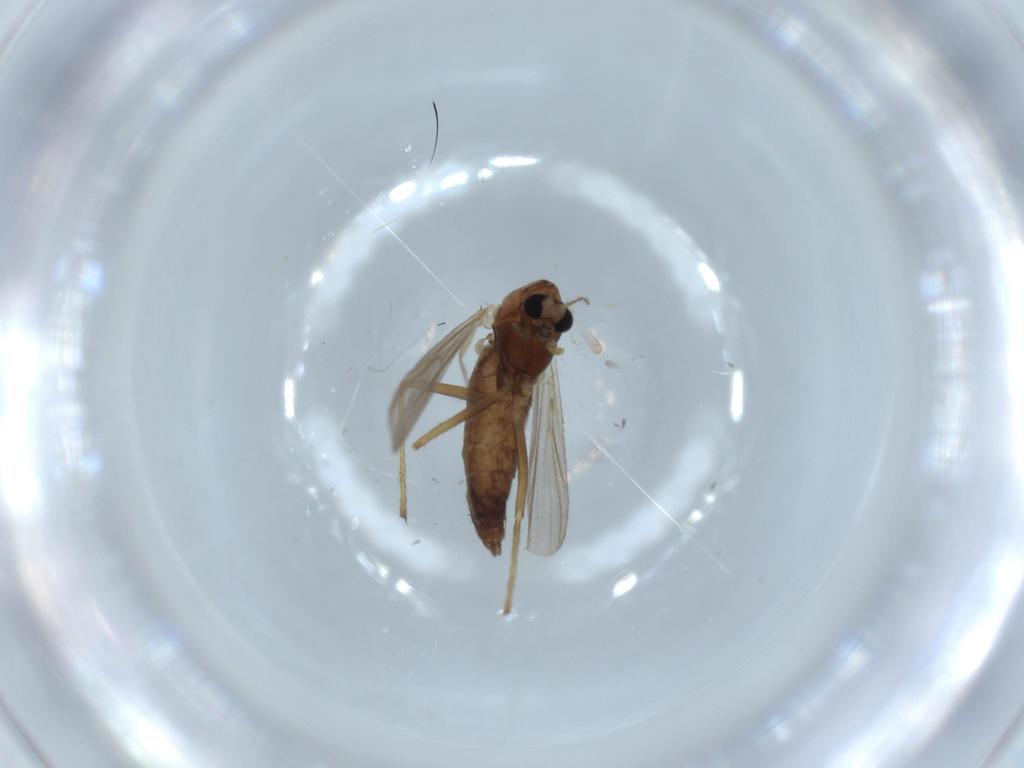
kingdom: Animalia
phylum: Arthropoda
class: Insecta
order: Diptera
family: Chironomidae
